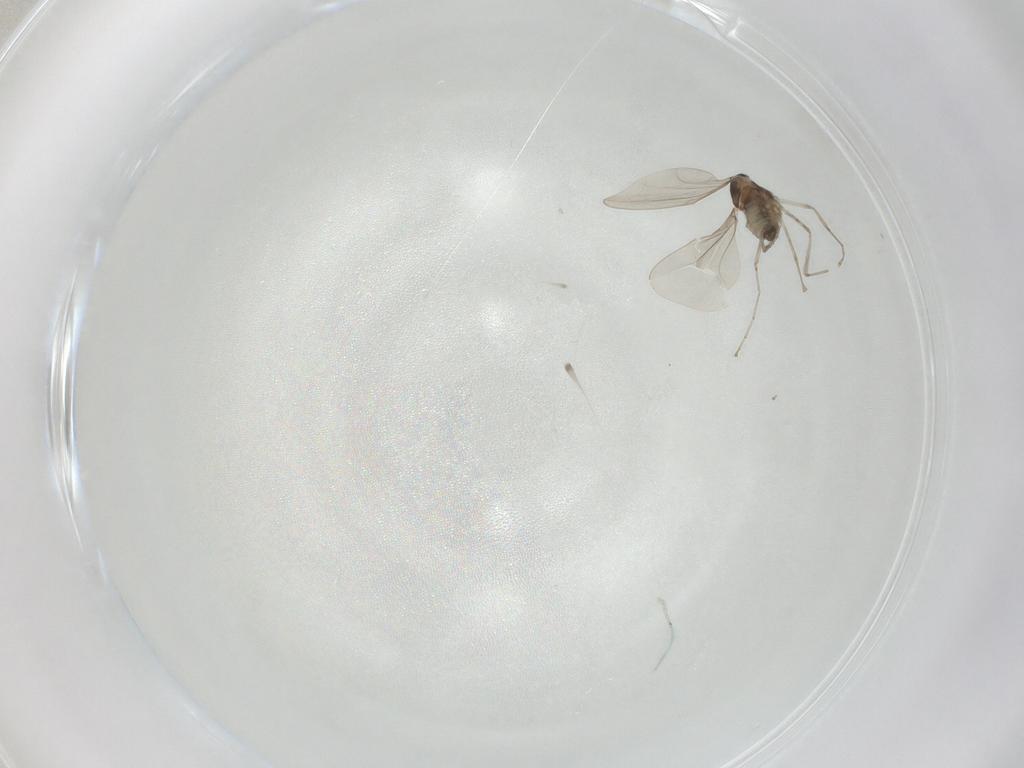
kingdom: Animalia
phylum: Arthropoda
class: Insecta
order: Diptera
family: Cecidomyiidae
